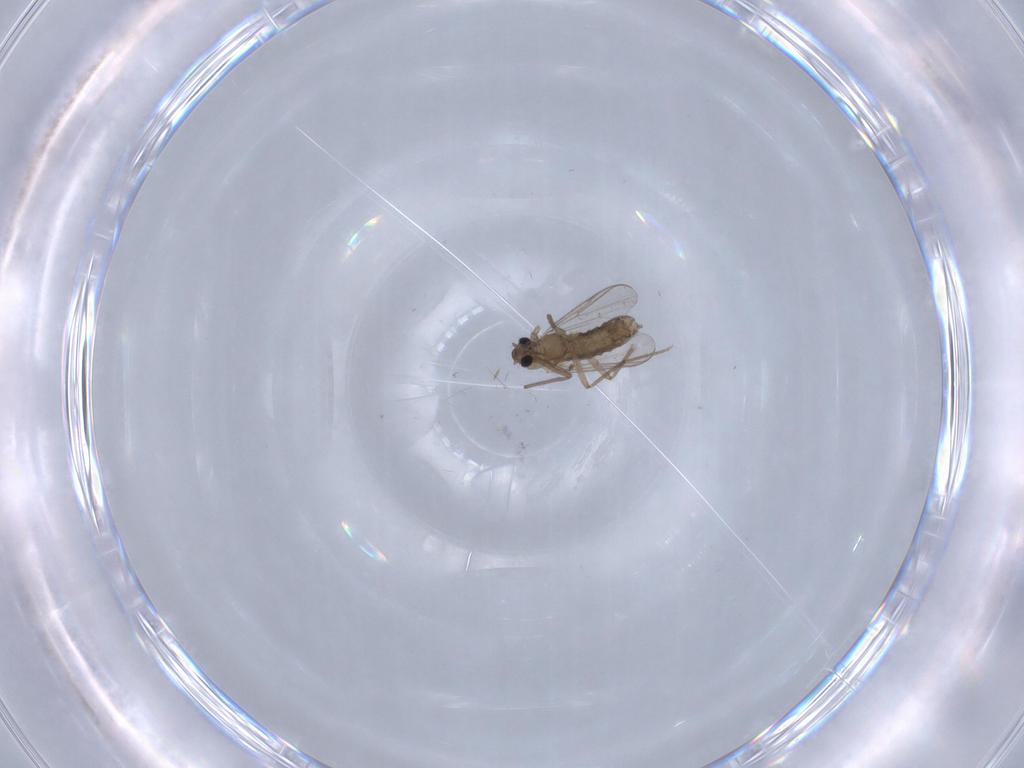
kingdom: Animalia
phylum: Arthropoda
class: Insecta
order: Diptera
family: Chironomidae
